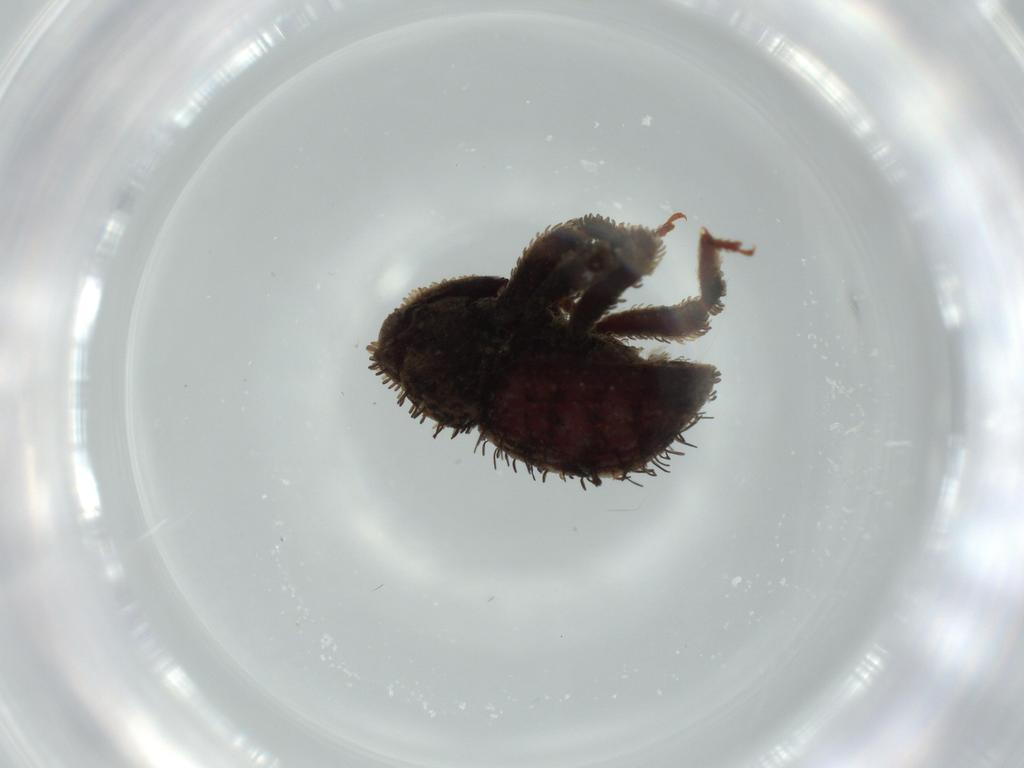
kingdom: Animalia
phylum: Arthropoda
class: Insecta
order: Coleoptera
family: Curculionidae
